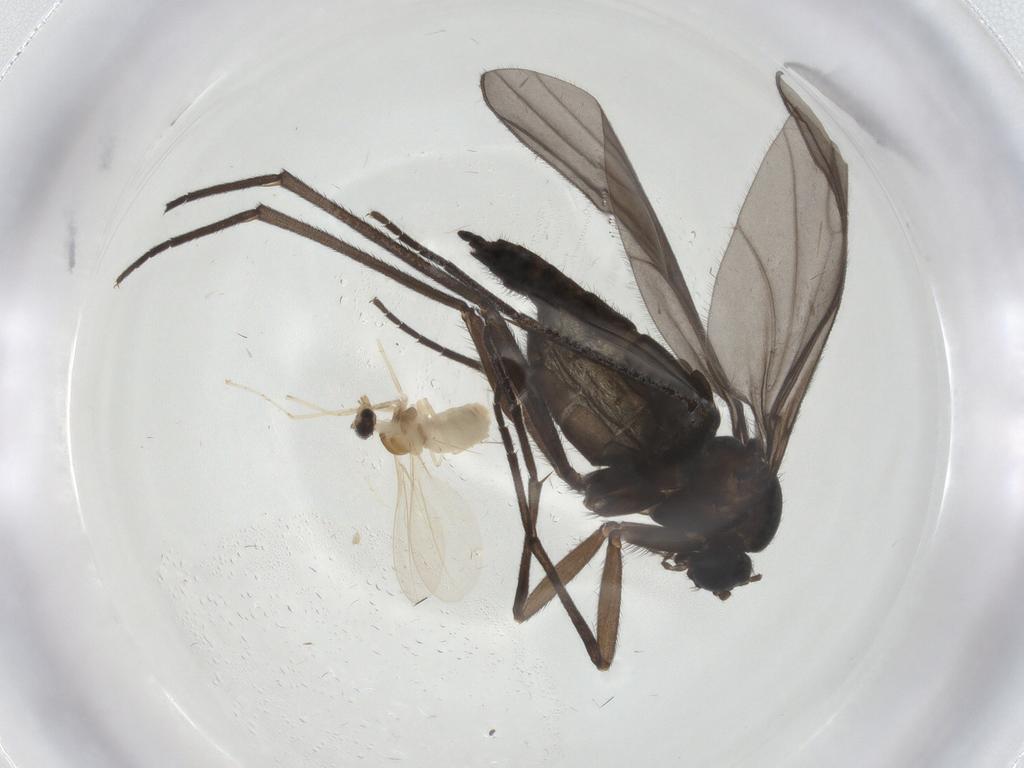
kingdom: Animalia
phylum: Arthropoda
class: Insecta
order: Diptera
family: Sciaridae
